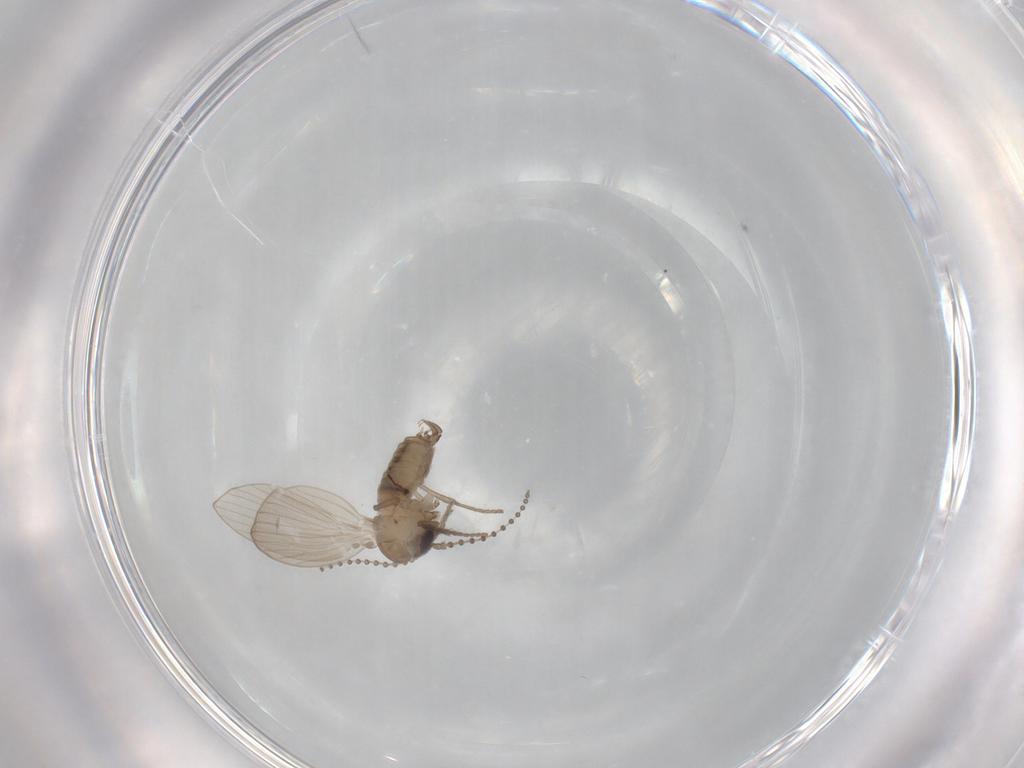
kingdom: Animalia
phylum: Arthropoda
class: Insecta
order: Diptera
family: Psychodidae
